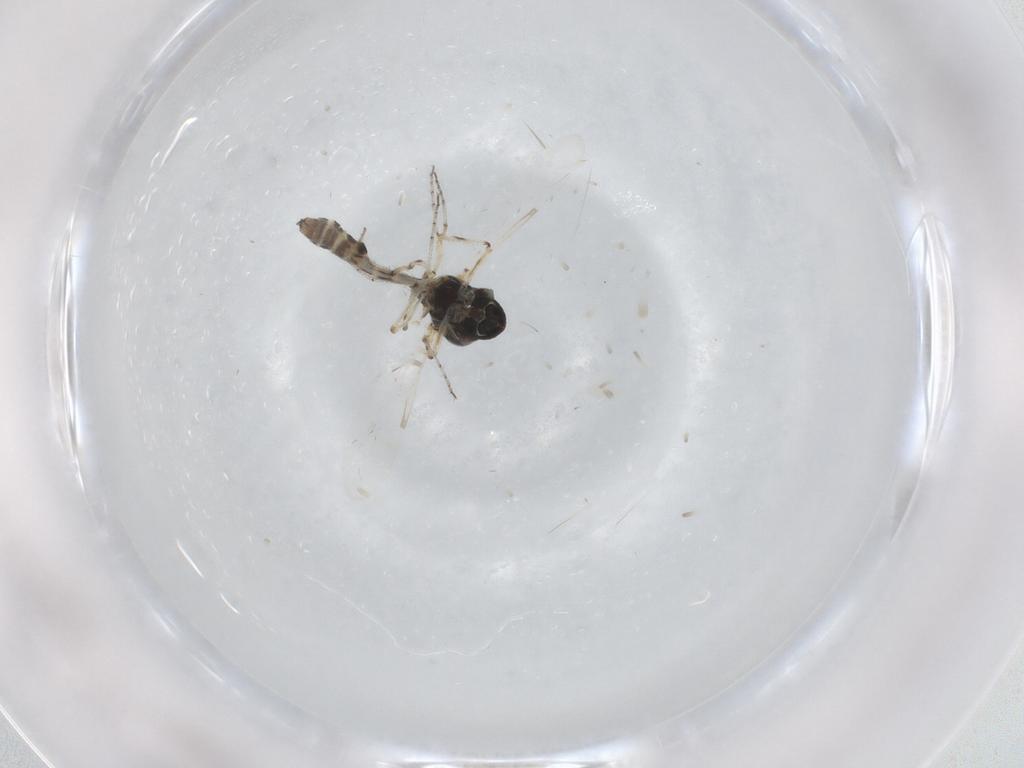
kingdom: Animalia
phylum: Arthropoda
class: Insecta
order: Diptera
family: Ceratopogonidae
